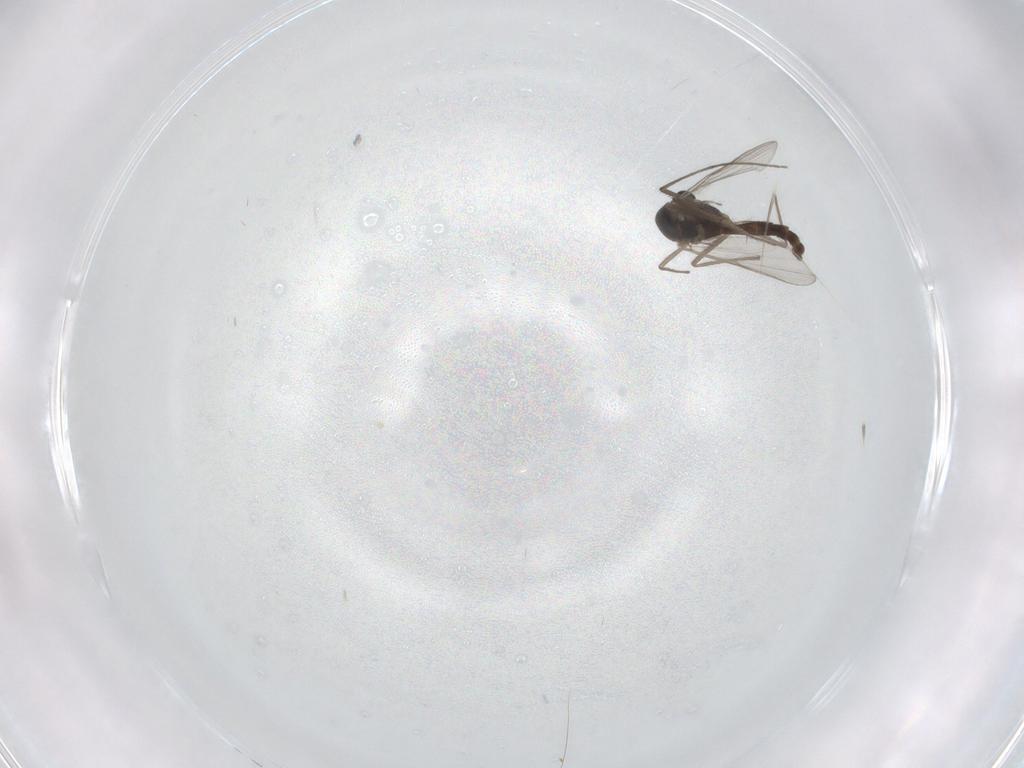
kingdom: Animalia
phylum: Arthropoda
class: Insecta
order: Diptera
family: Chironomidae
